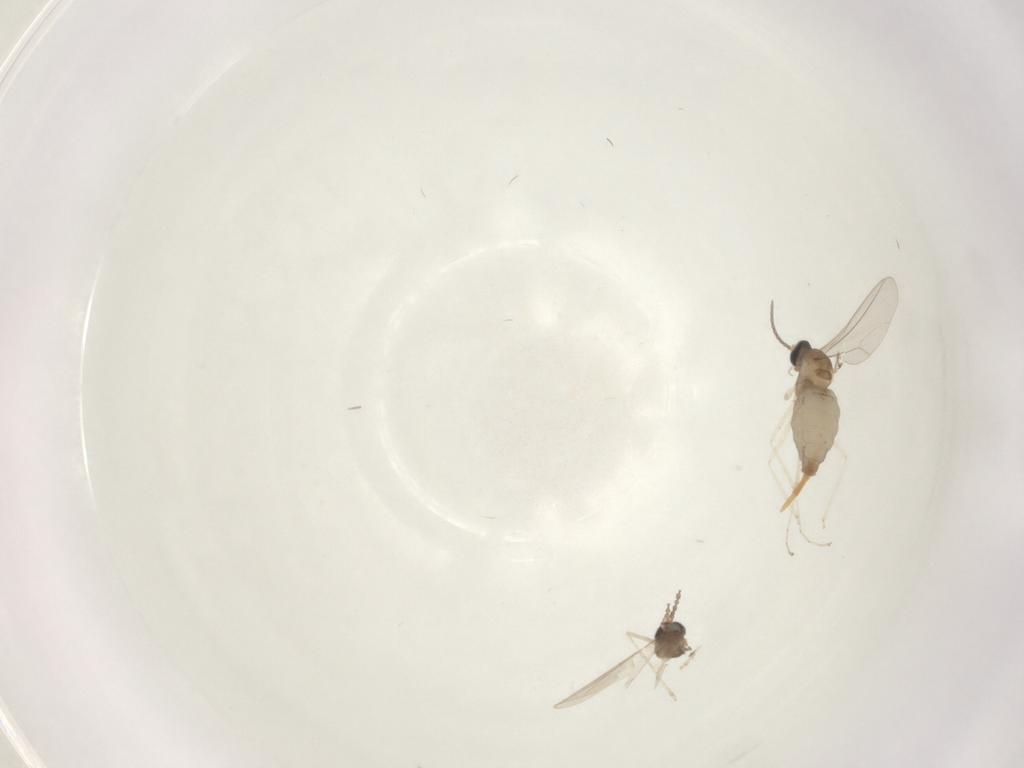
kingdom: Animalia
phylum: Arthropoda
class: Insecta
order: Diptera
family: Cecidomyiidae
